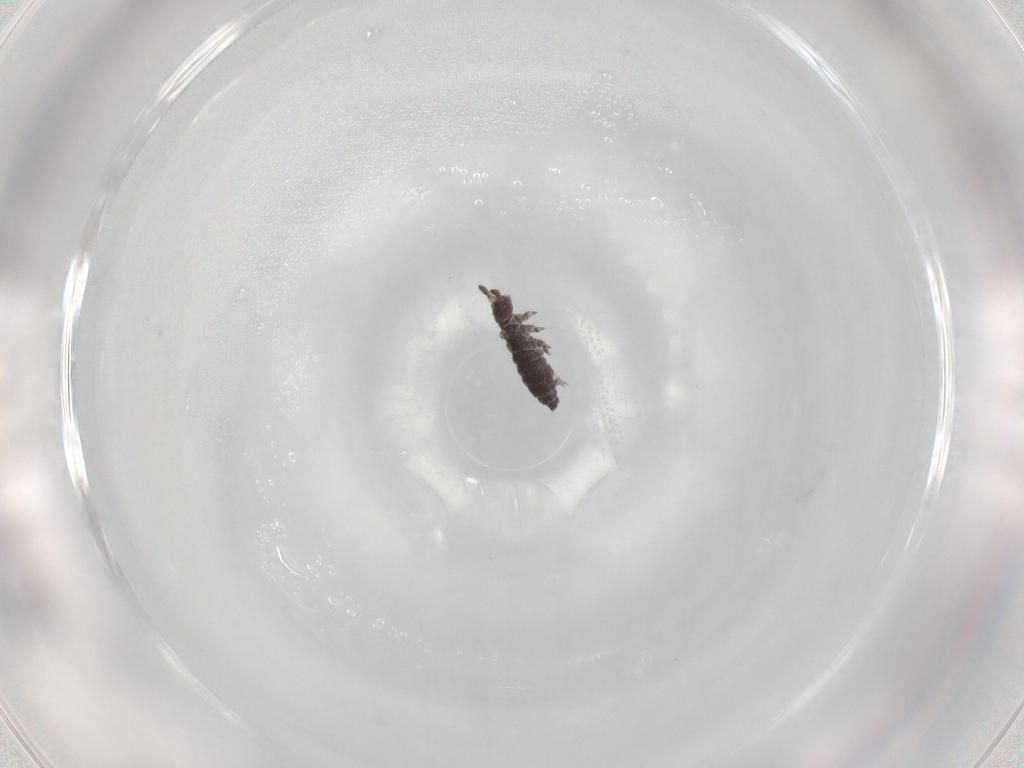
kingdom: Animalia
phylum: Arthropoda
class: Collembola
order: Poduromorpha
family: Hypogastruridae
